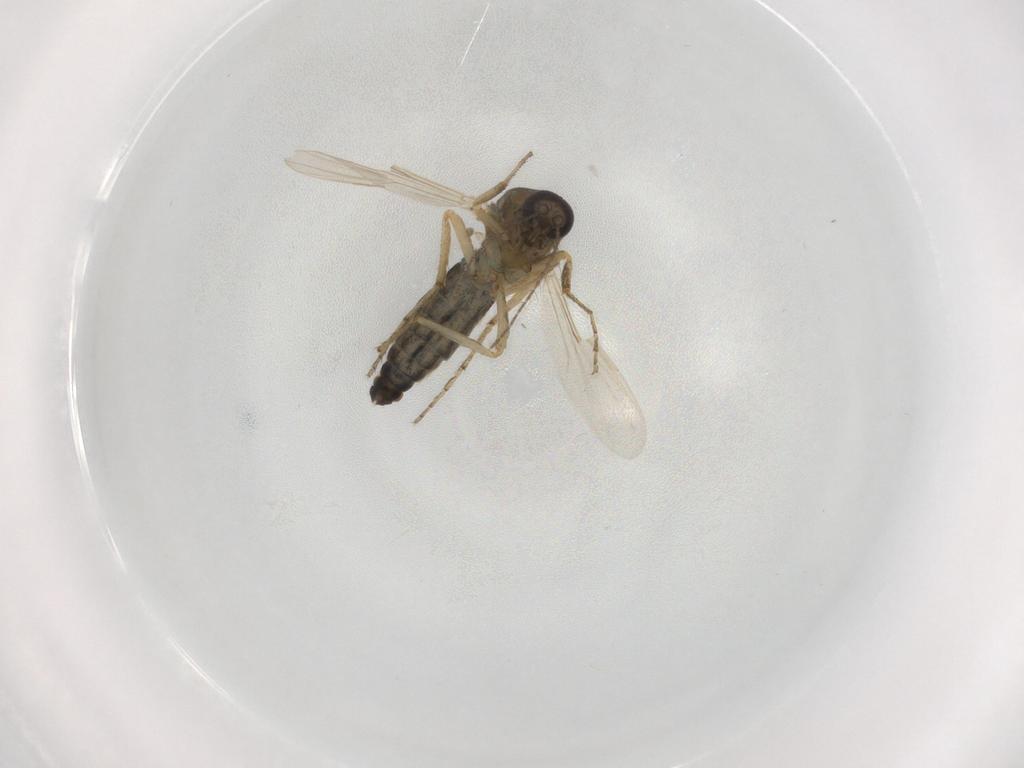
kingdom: Animalia
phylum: Arthropoda
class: Insecta
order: Diptera
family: Ceratopogonidae
